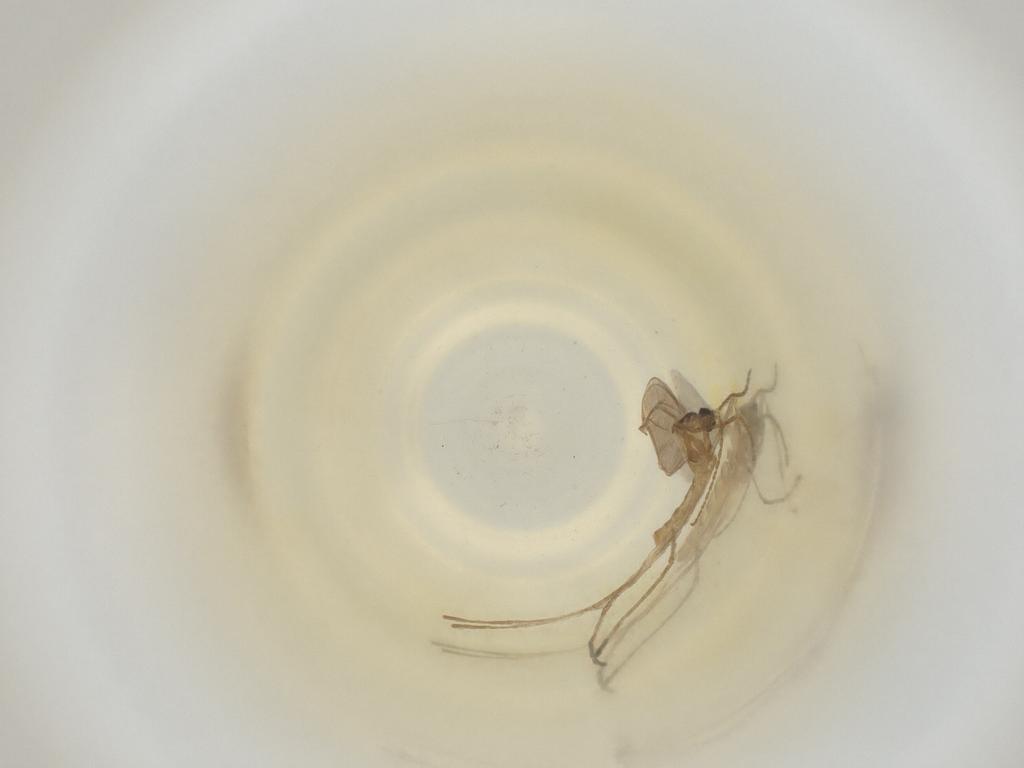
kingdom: Animalia
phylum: Arthropoda
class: Insecta
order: Diptera
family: Cecidomyiidae
